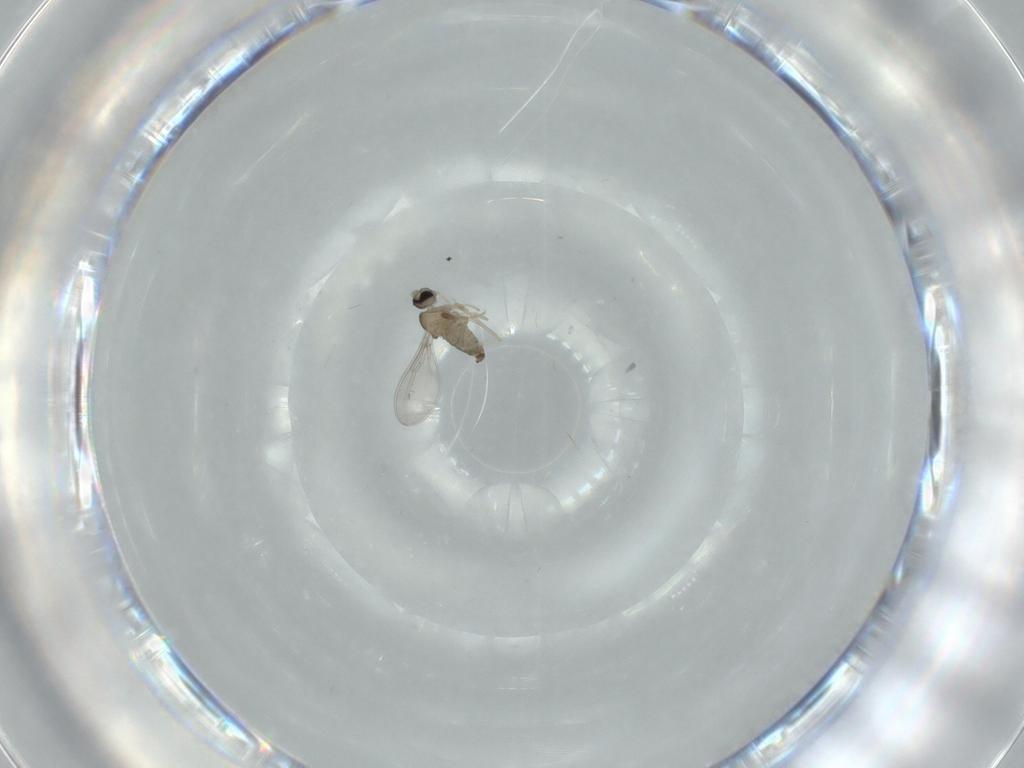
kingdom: Animalia
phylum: Arthropoda
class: Insecta
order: Diptera
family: Cecidomyiidae
